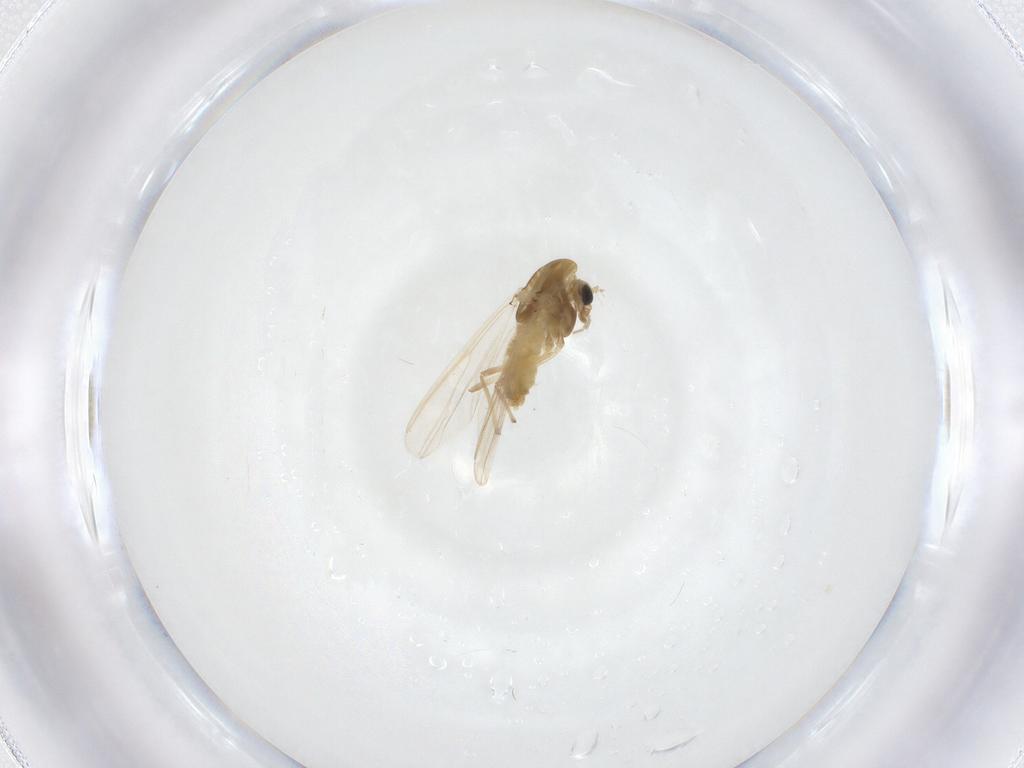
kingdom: Animalia
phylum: Arthropoda
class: Insecta
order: Diptera
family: Chironomidae
